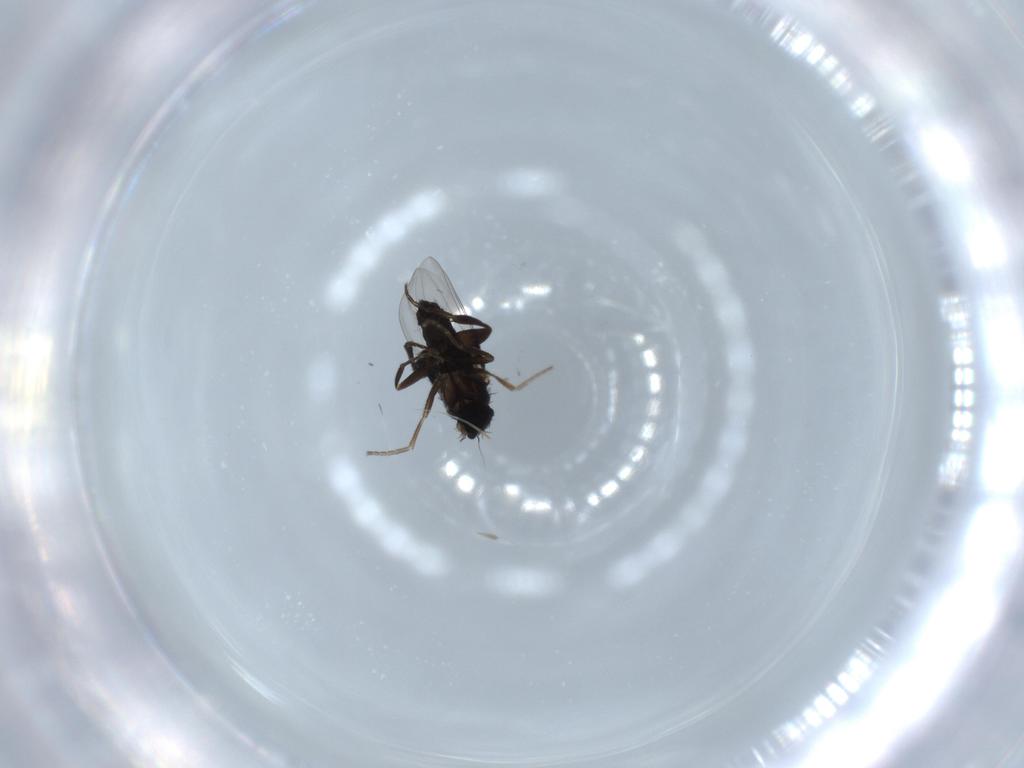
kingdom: Animalia
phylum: Arthropoda
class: Insecta
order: Diptera
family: Phoridae
